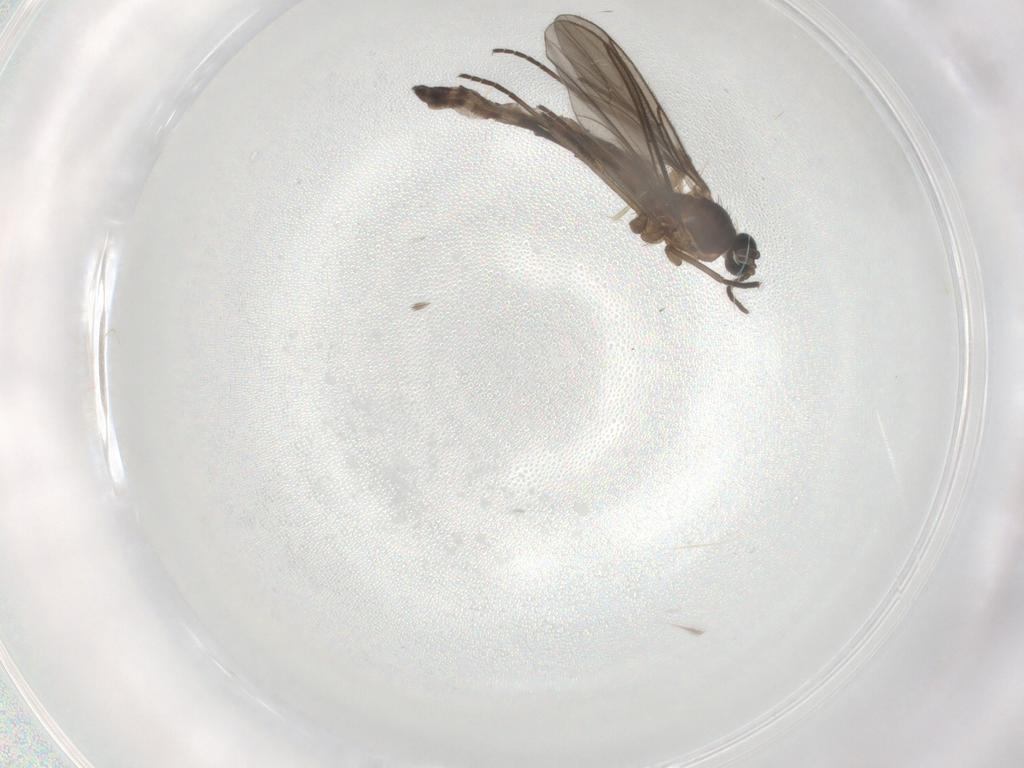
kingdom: Animalia
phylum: Arthropoda
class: Insecta
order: Diptera
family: Sciaridae
